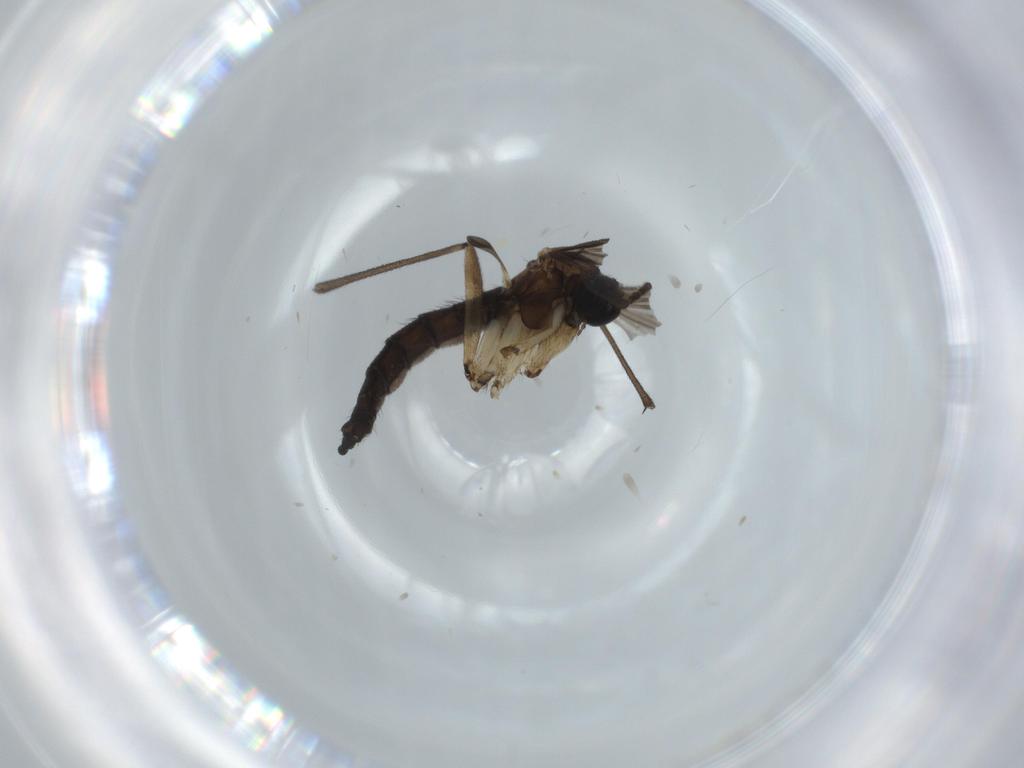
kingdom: Animalia
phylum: Arthropoda
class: Insecta
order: Diptera
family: Sciaridae
